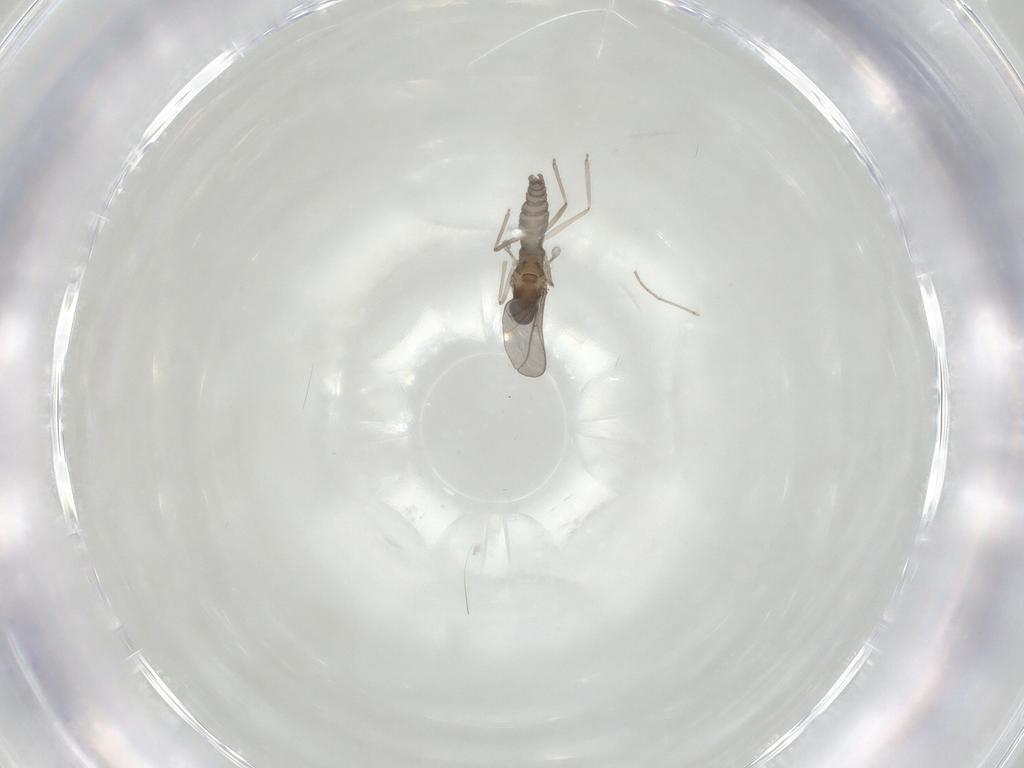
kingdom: Animalia
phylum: Arthropoda
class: Insecta
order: Diptera
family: Cecidomyiidae
